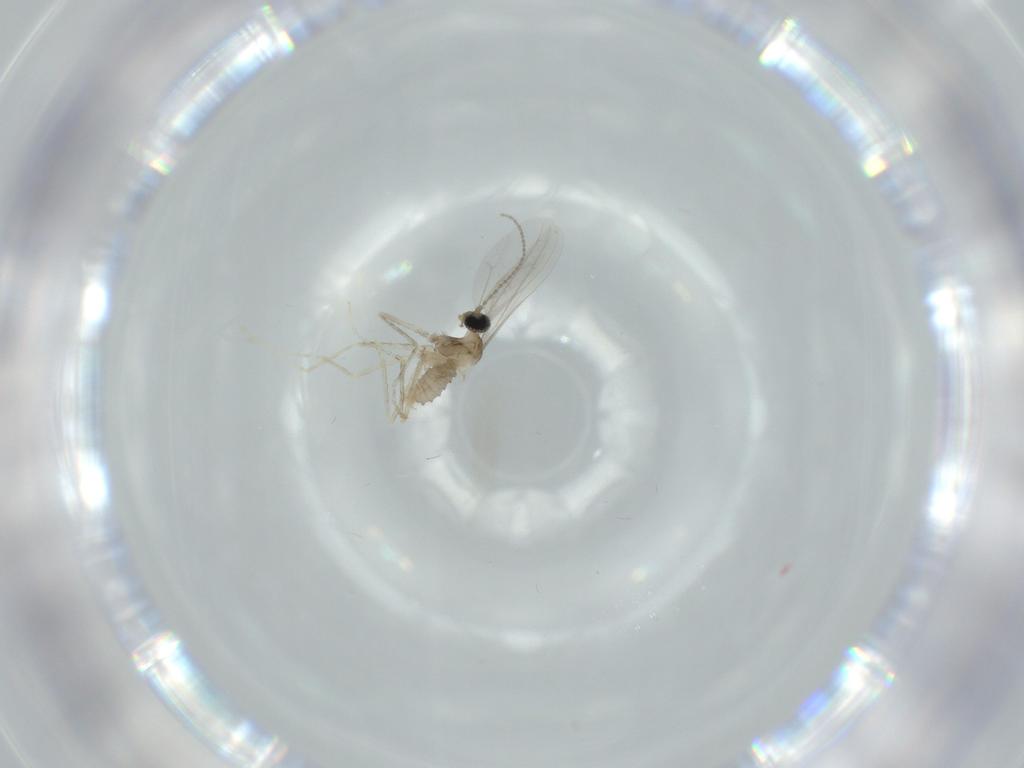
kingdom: Animalia
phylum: Arthropoda
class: Insecta
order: Diptera
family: Cecidomyiidae
